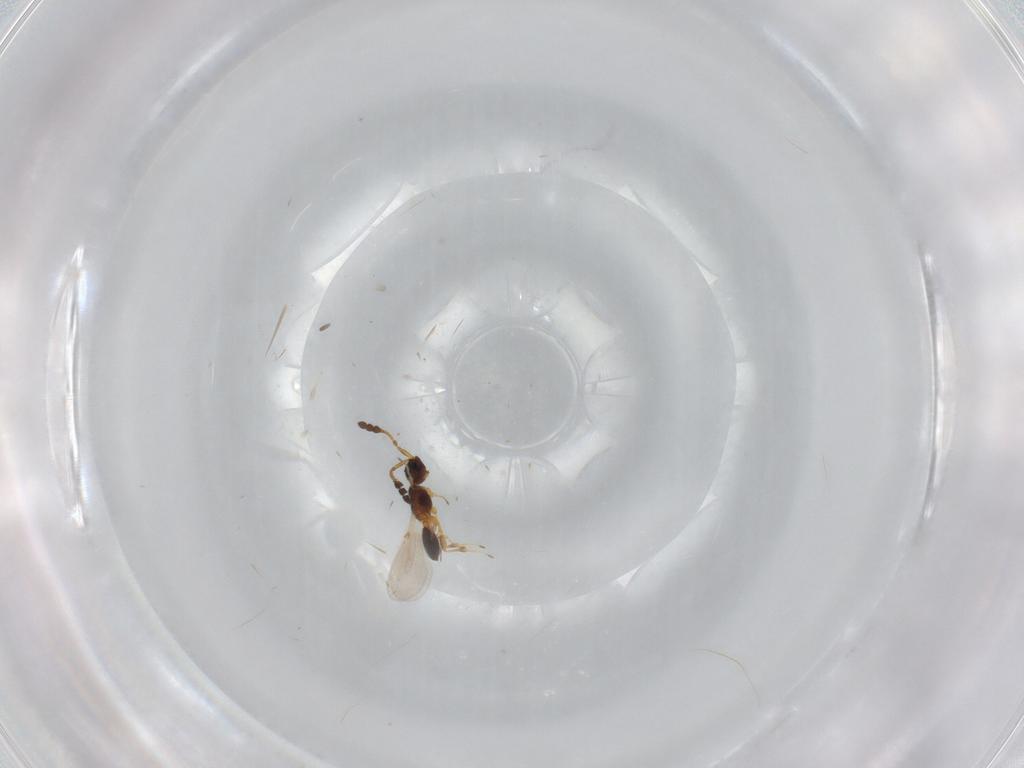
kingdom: Animalia
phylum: Arthropoda
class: Insecta
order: Hymenoptera
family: Diapriidae
